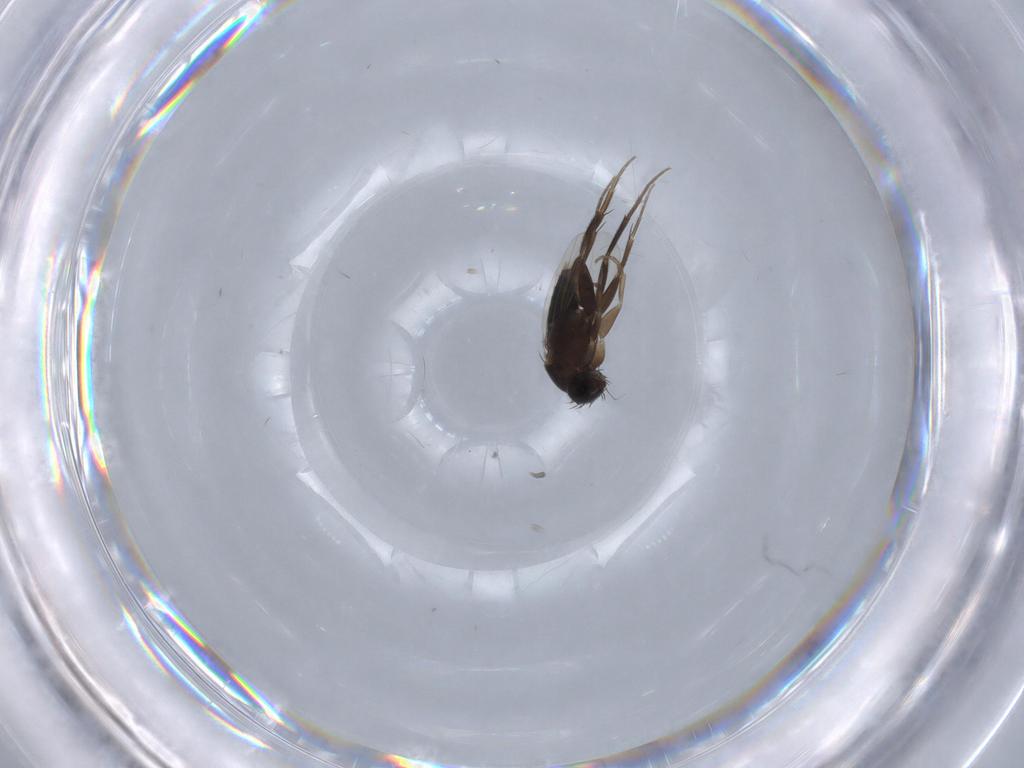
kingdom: Animalia
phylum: Arthropoda
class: Insecta
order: Diptera
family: Phoridae
